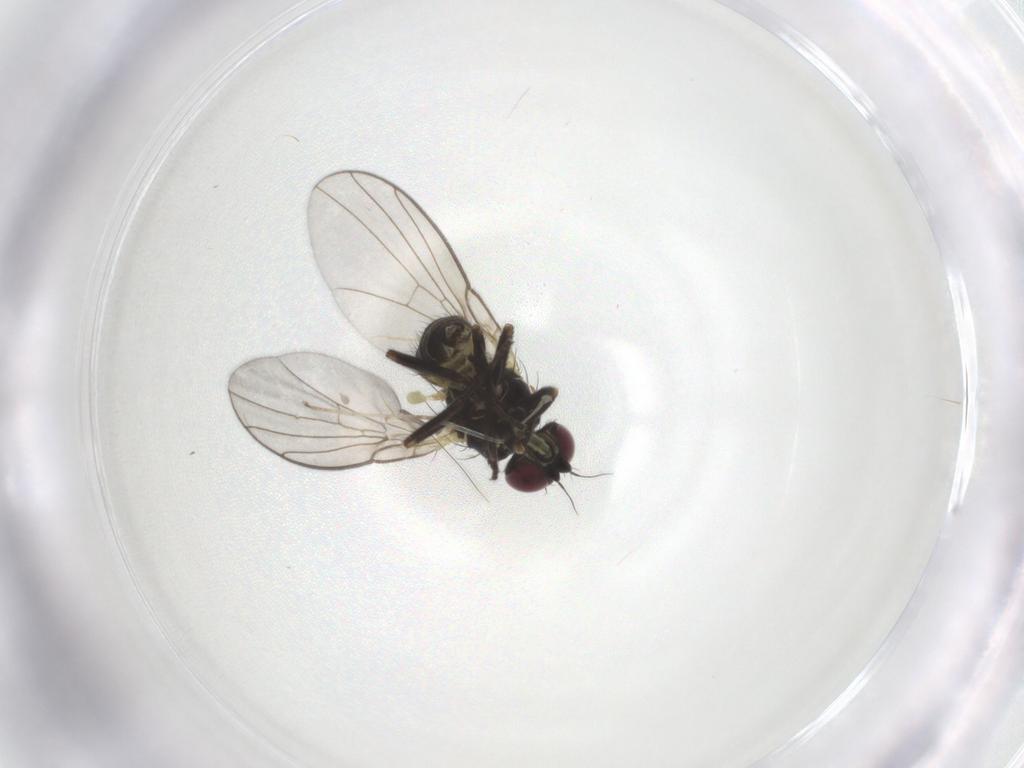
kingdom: Animalia
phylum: Arthropoda
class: Insecta
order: Diptera
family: Agromyzidae
